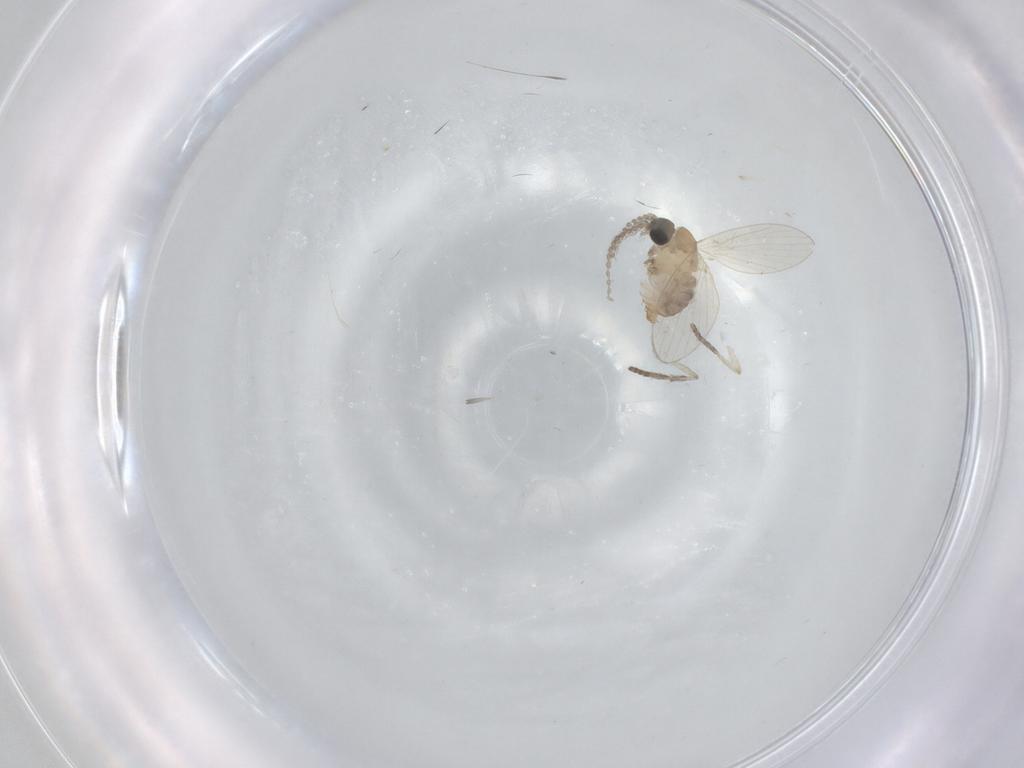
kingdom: Animalia
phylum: Arthropoda
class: Insecta
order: Diptera
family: Psychodidae
